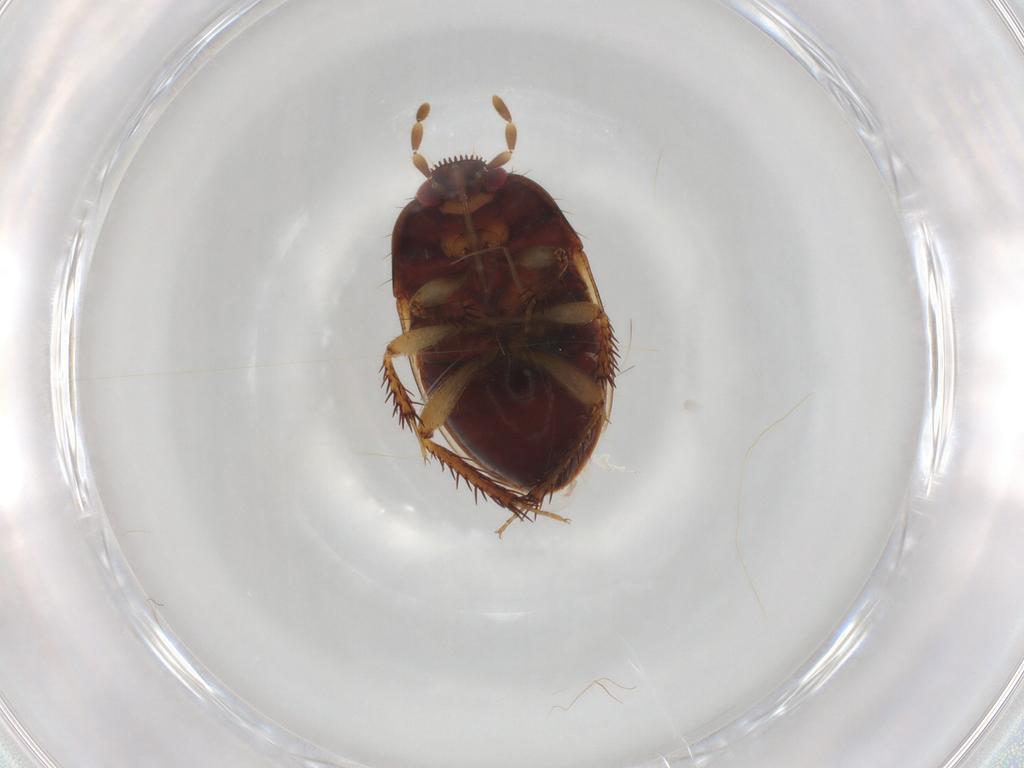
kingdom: Animalia
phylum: Arthropoda
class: Insecta
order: Hemiptera
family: Cydnidae
